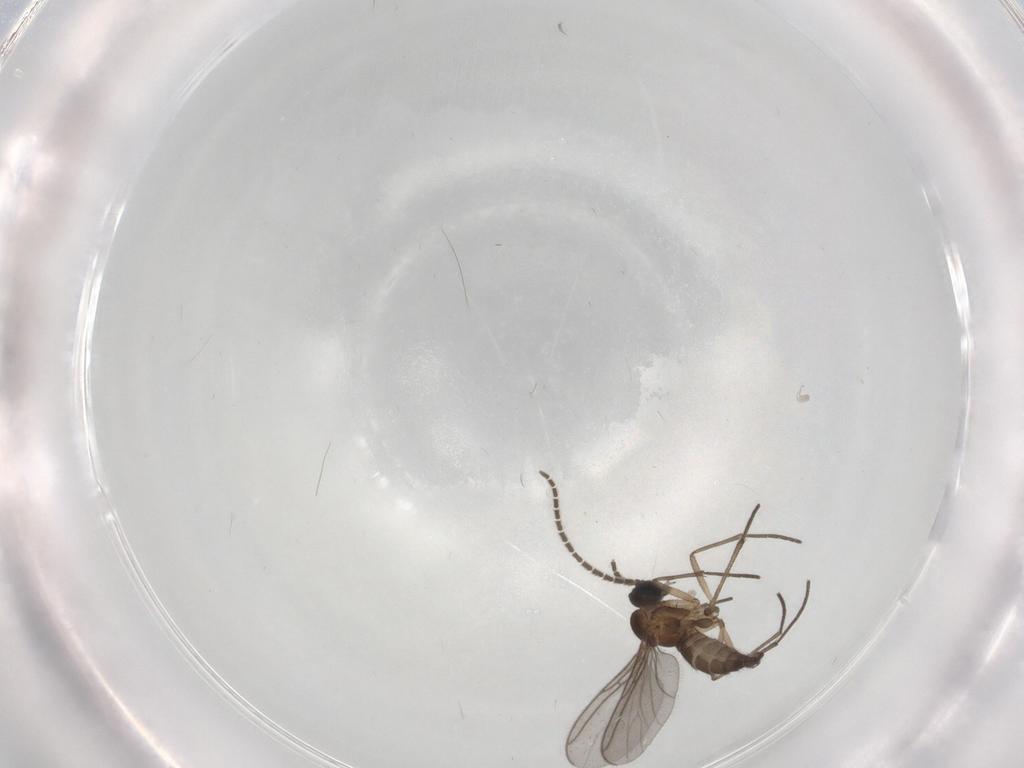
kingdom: Animalia
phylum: Arthropoda
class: Insecta
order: Diptera
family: Sciaridae
